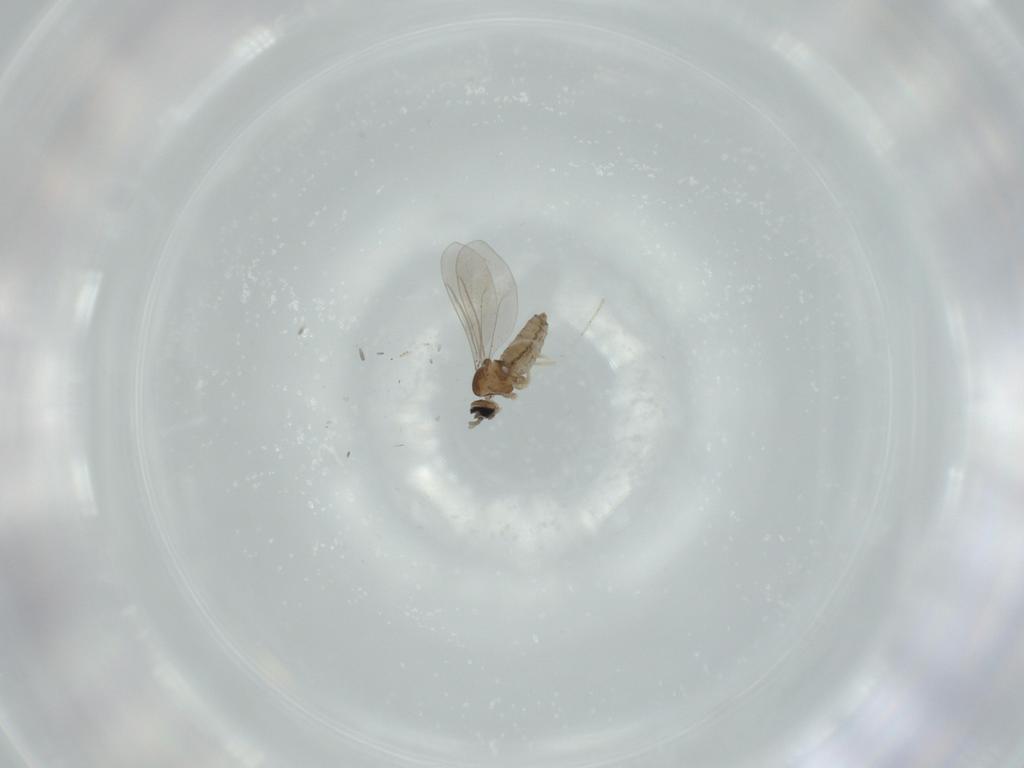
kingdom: Animalia
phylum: Arthropoda
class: Insecta
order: Diptera
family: Cecidomyiidae
